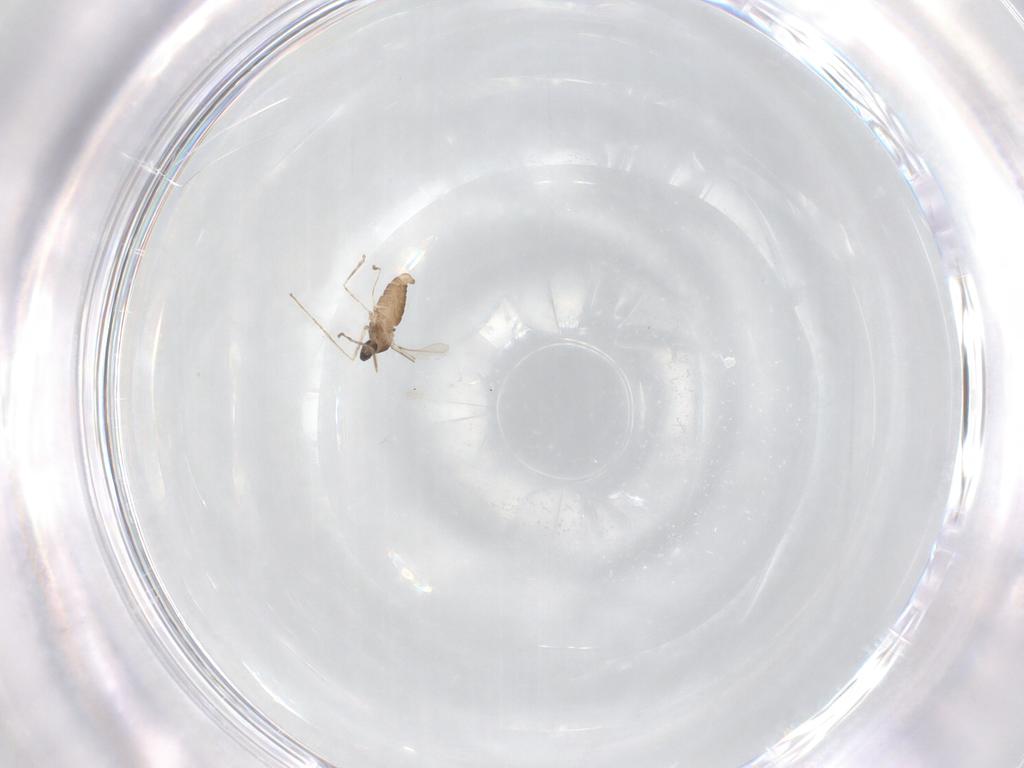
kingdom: Animalia
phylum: Arthropoda
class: Insecta
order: Diptera
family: Cecidomyiidae
